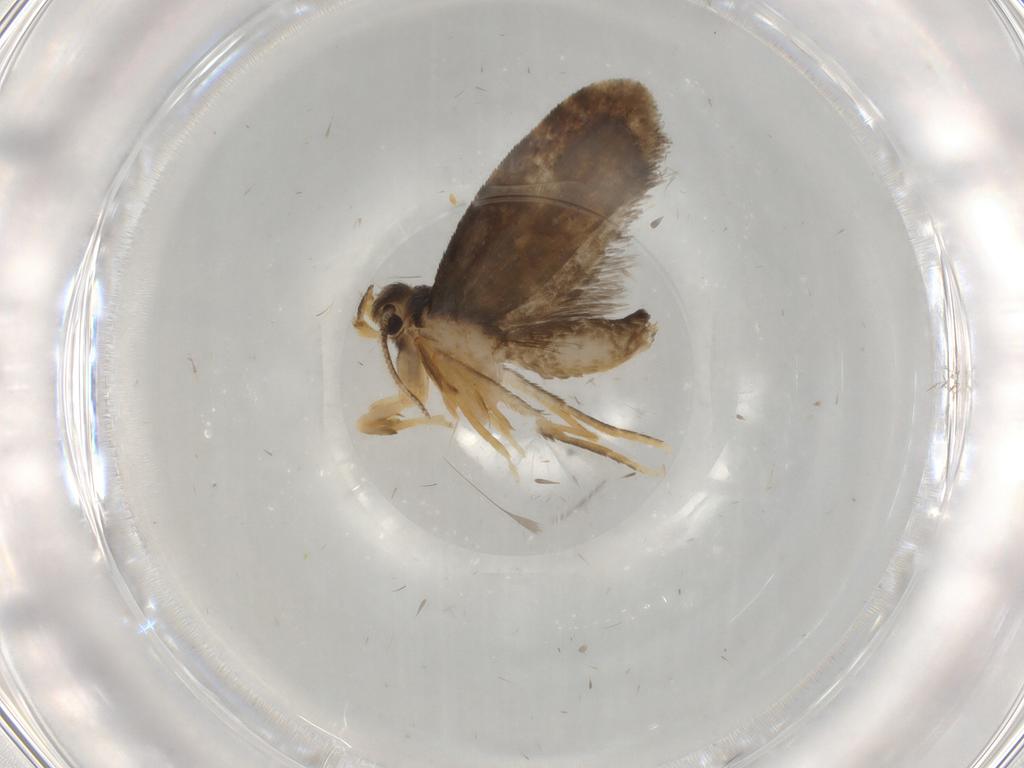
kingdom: Animalia
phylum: Arthropoda
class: Insecta
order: Lepidoptera
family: Psychidae
